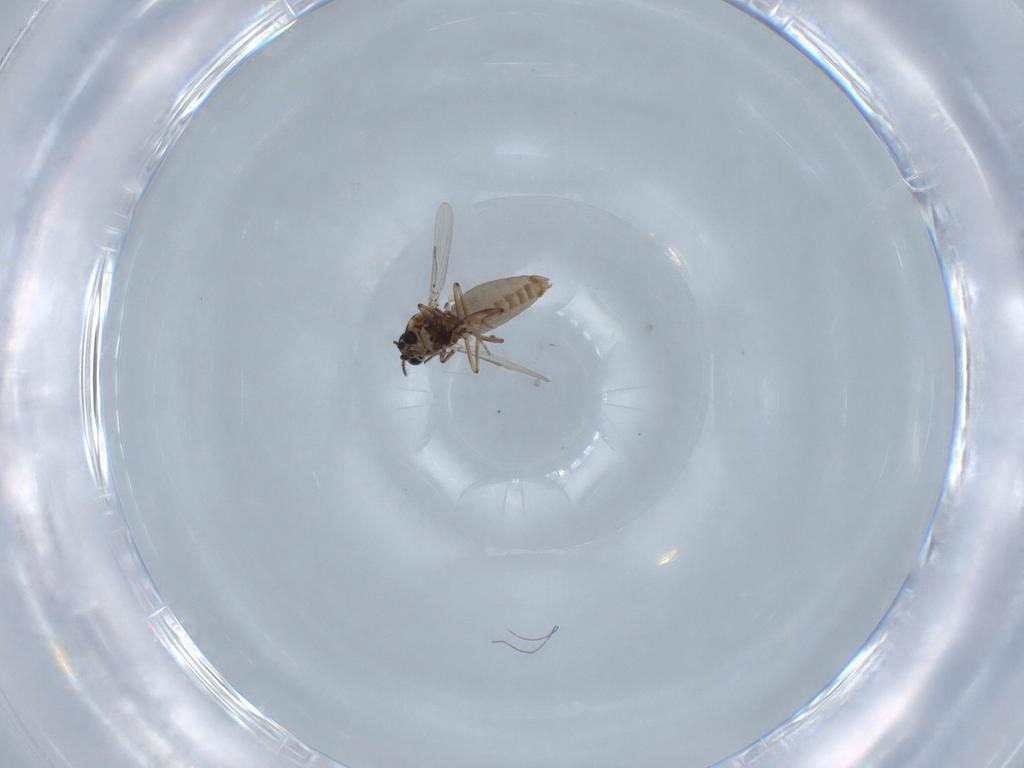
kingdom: Animalia
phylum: Arthropoda
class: Insecta
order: Diptera
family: Ceratopogonidae
